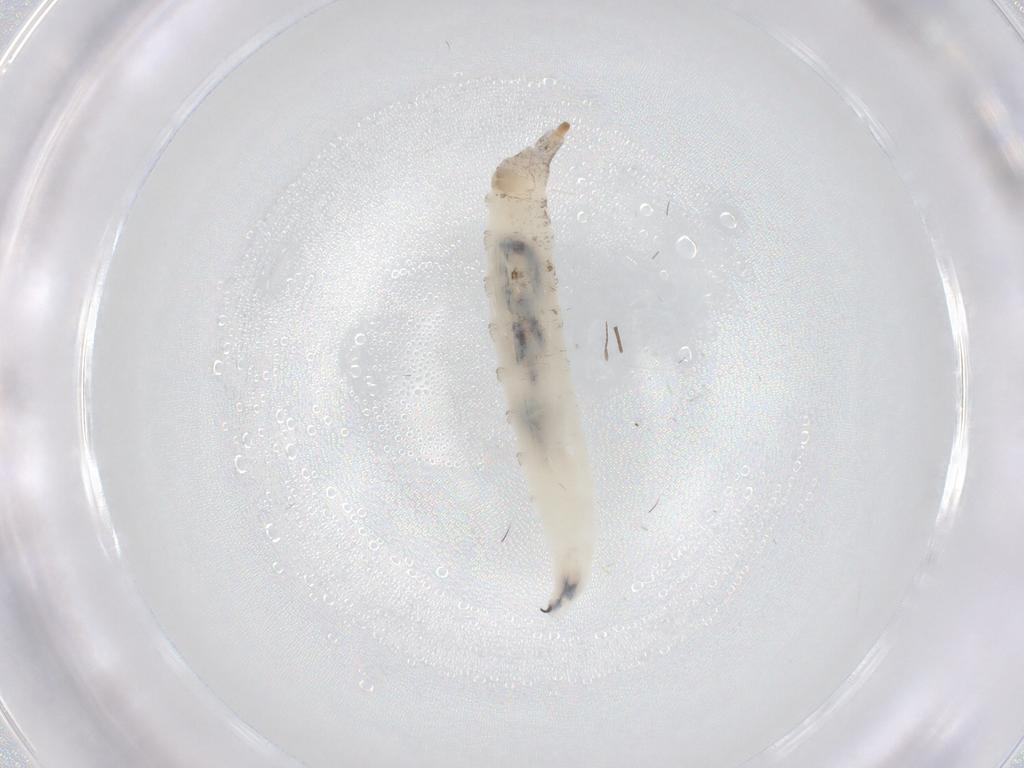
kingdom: Animalia
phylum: Arthropoda
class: Insecta
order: Diptera
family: Drosophilidae
